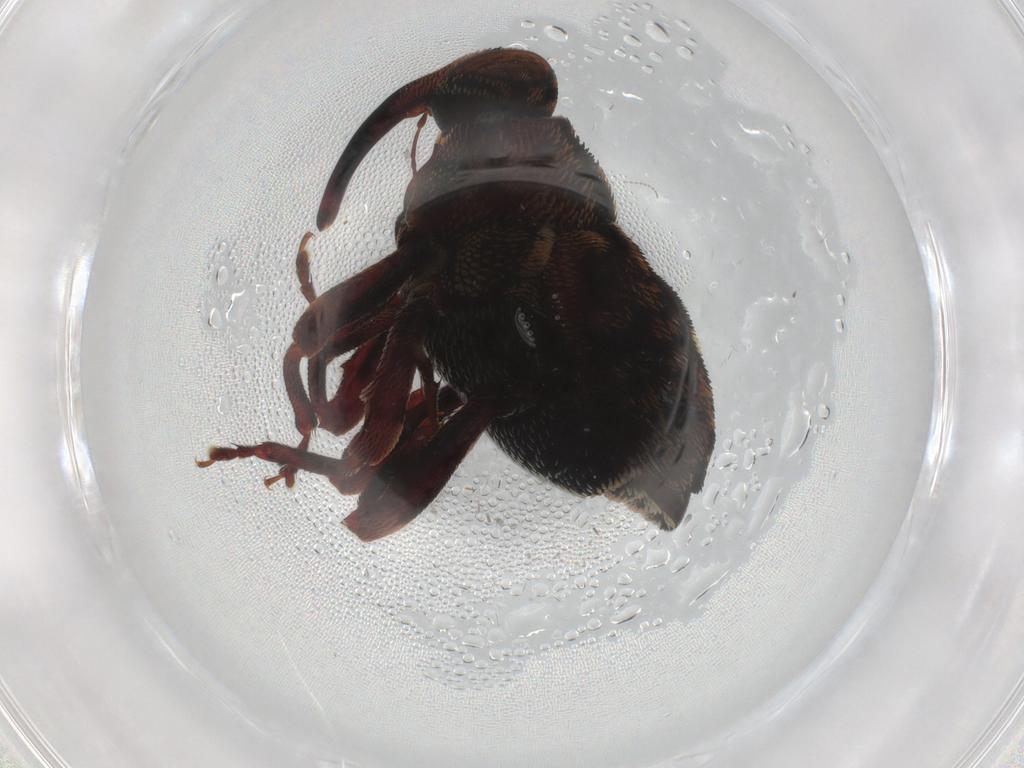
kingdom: Animalia
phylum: Arthropoda
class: Insecta
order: Coleoptera
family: Curculionidae
